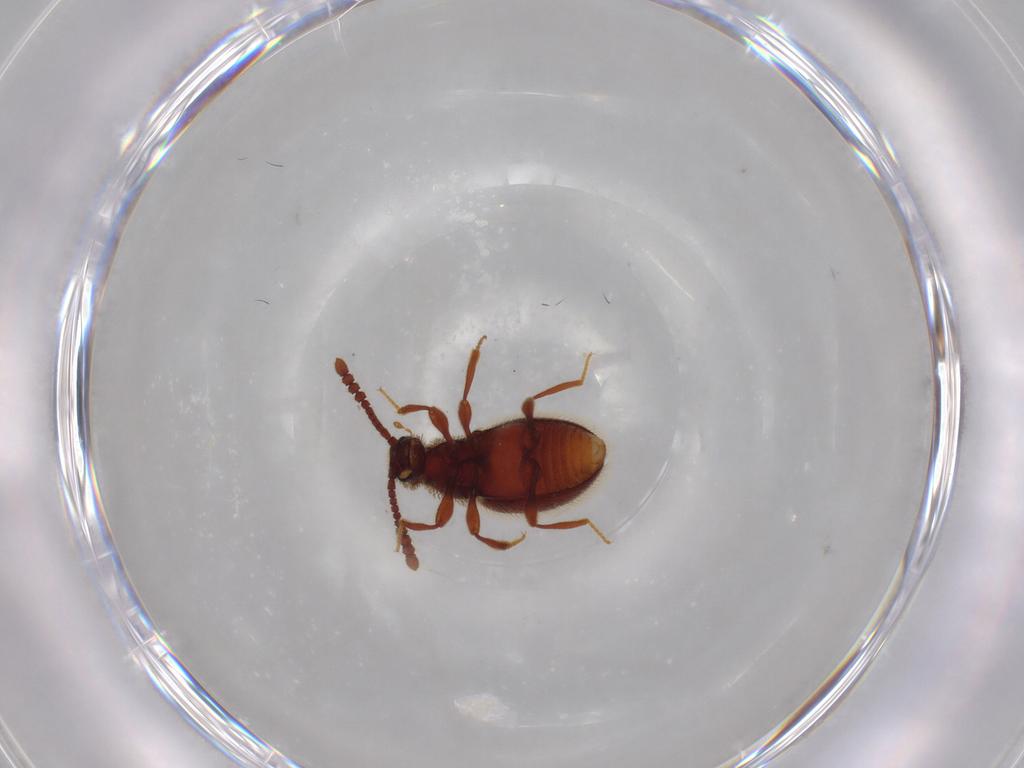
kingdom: Animalia
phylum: Arthropoda
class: Insecta
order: Coleoptera
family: Staphylinidae
